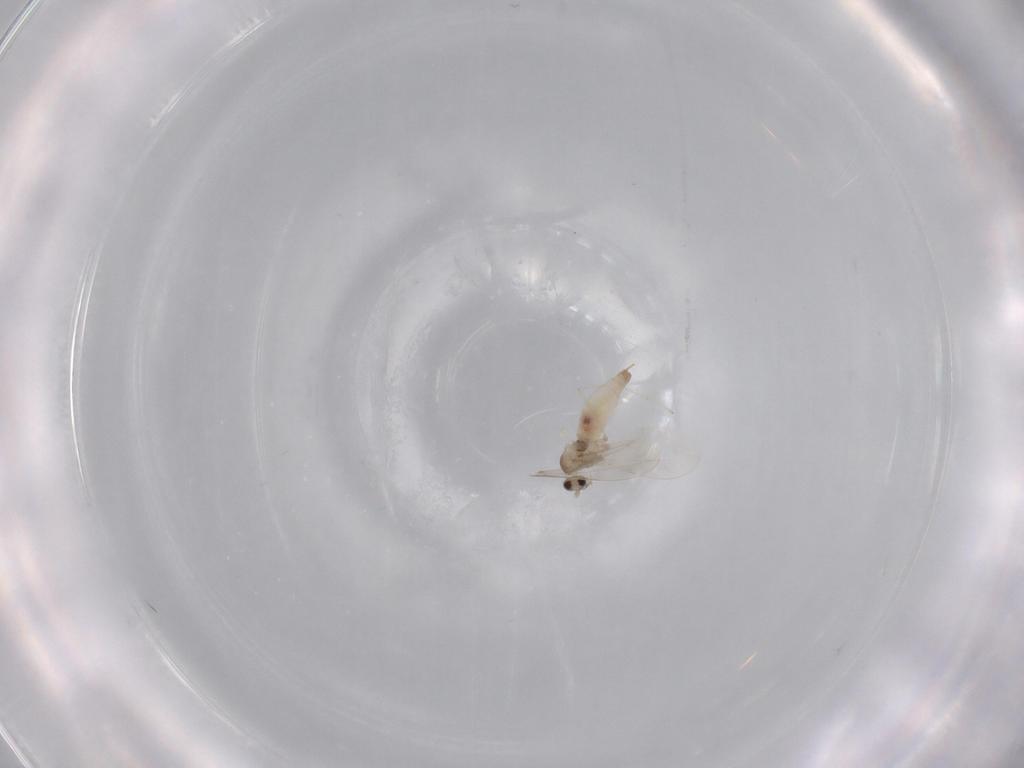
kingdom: Animalia
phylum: Arthropoda
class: Insecta
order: Diptera
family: Cecidomyiidae
